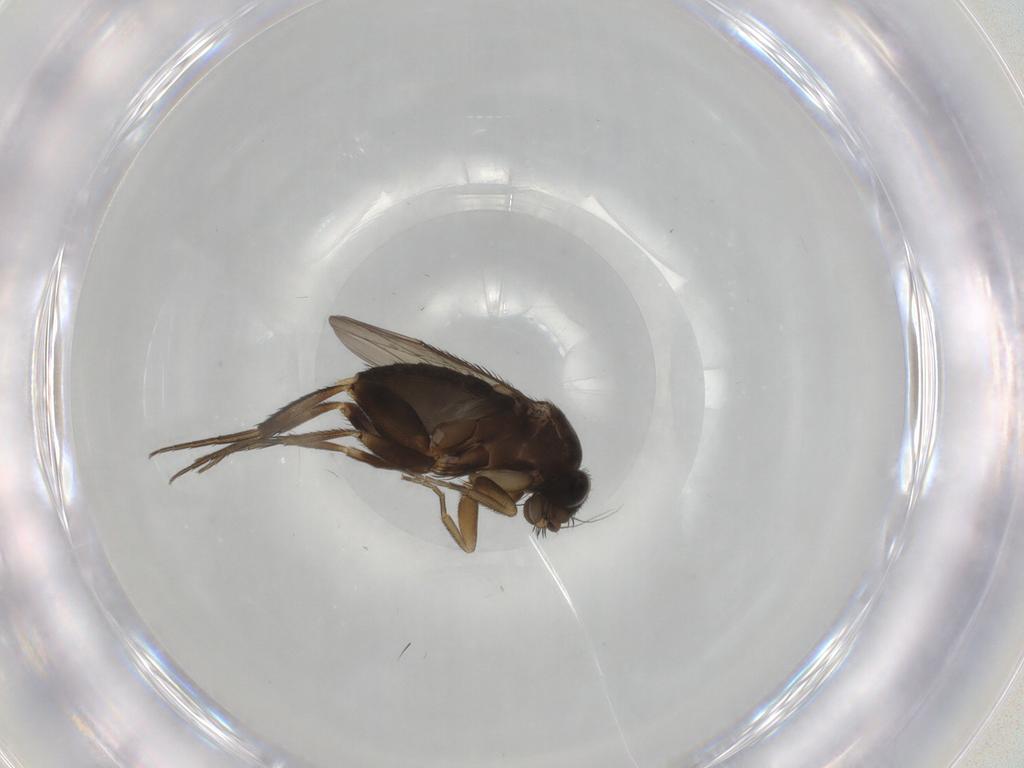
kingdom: Animalia
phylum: Arthropoda
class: Insecta
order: Diptera
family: Phoridae
